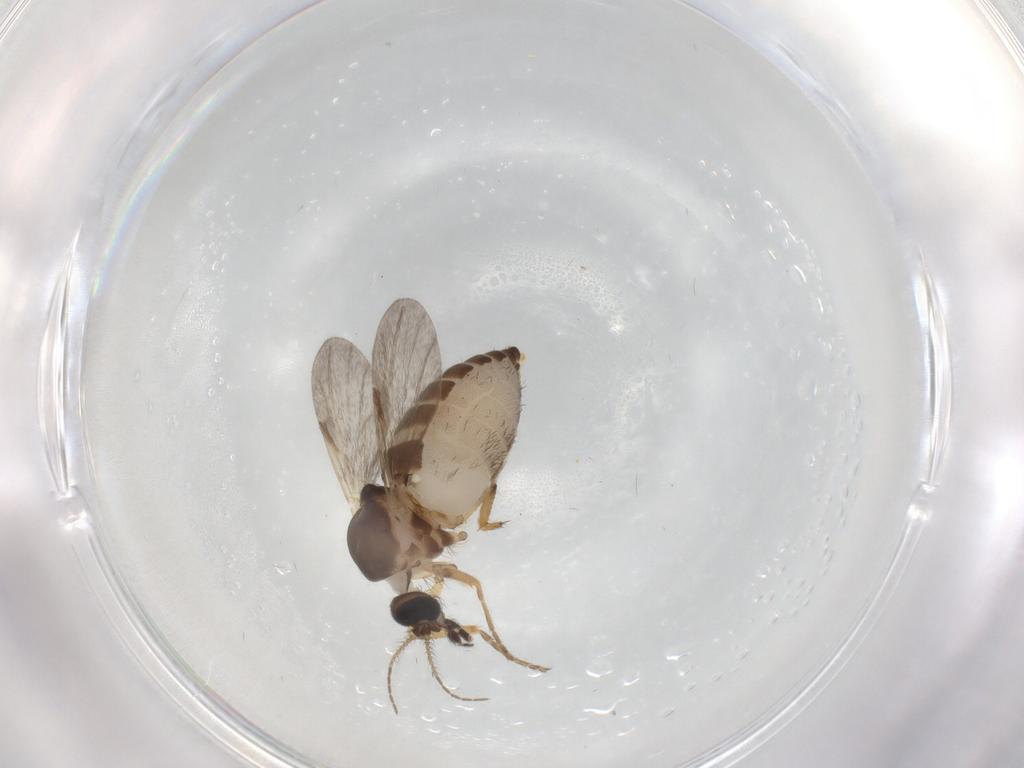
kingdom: Animalia
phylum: Arthropoda
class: Insecta
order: Diptera
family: Ceratopogonidae
